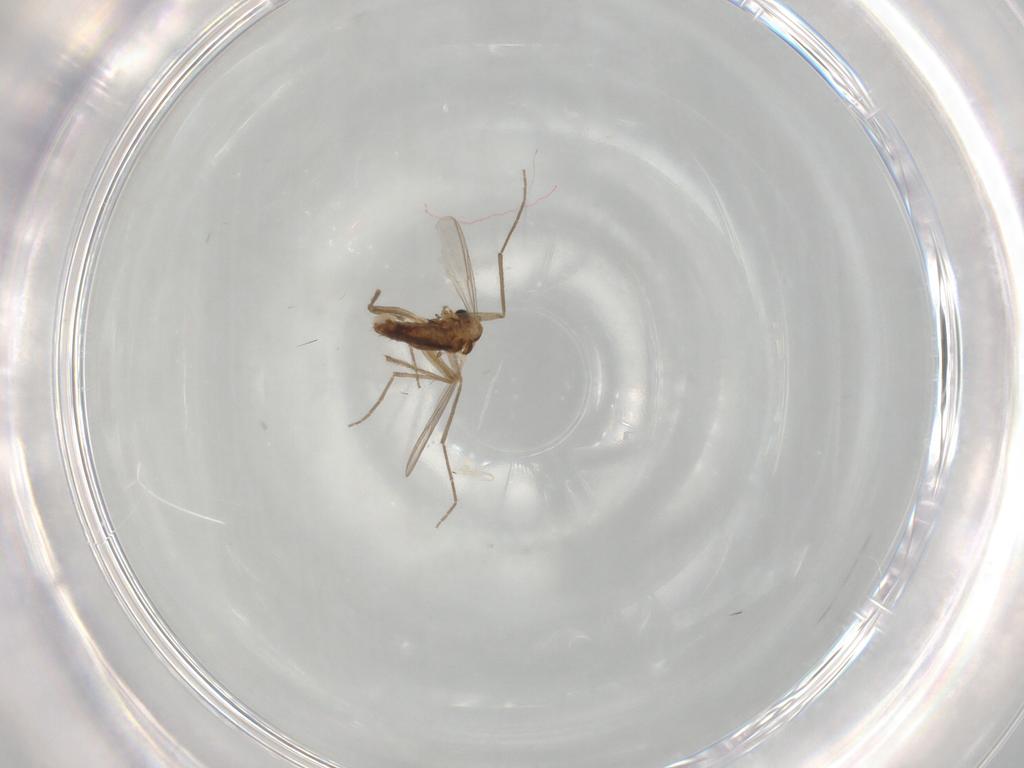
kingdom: Animalia
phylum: Arthropoda
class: Insecta
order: Diptera
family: Chironomidae
